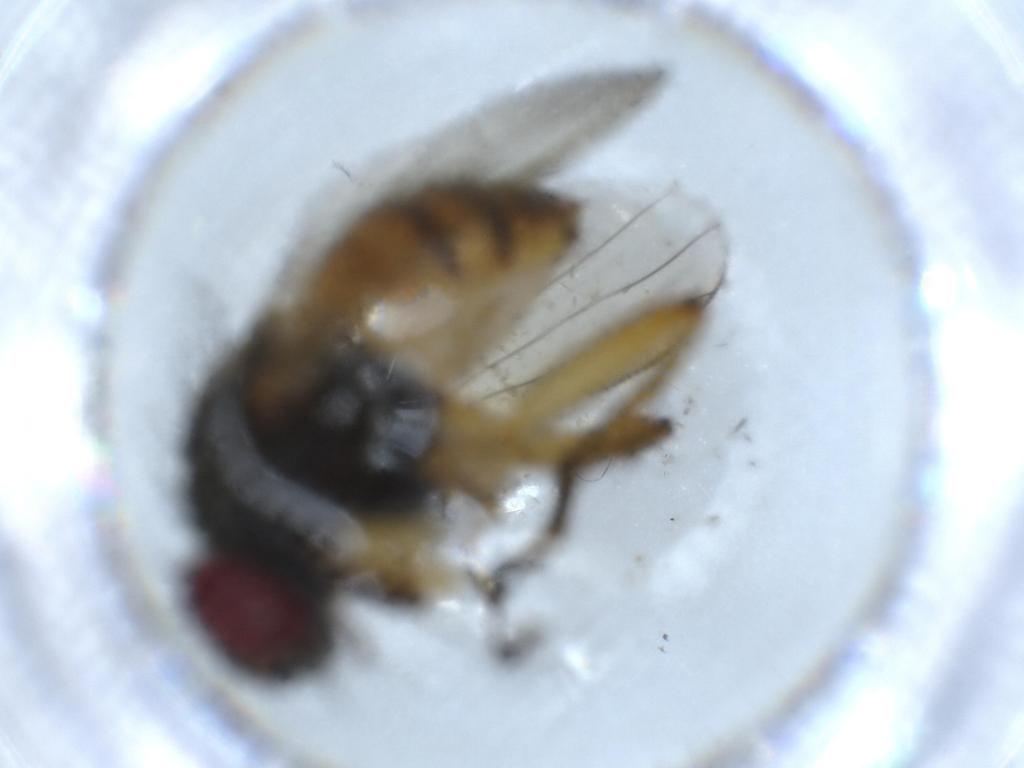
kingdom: Animalia
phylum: Arthropoda
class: Insecta
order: Diptera
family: Muscidae
